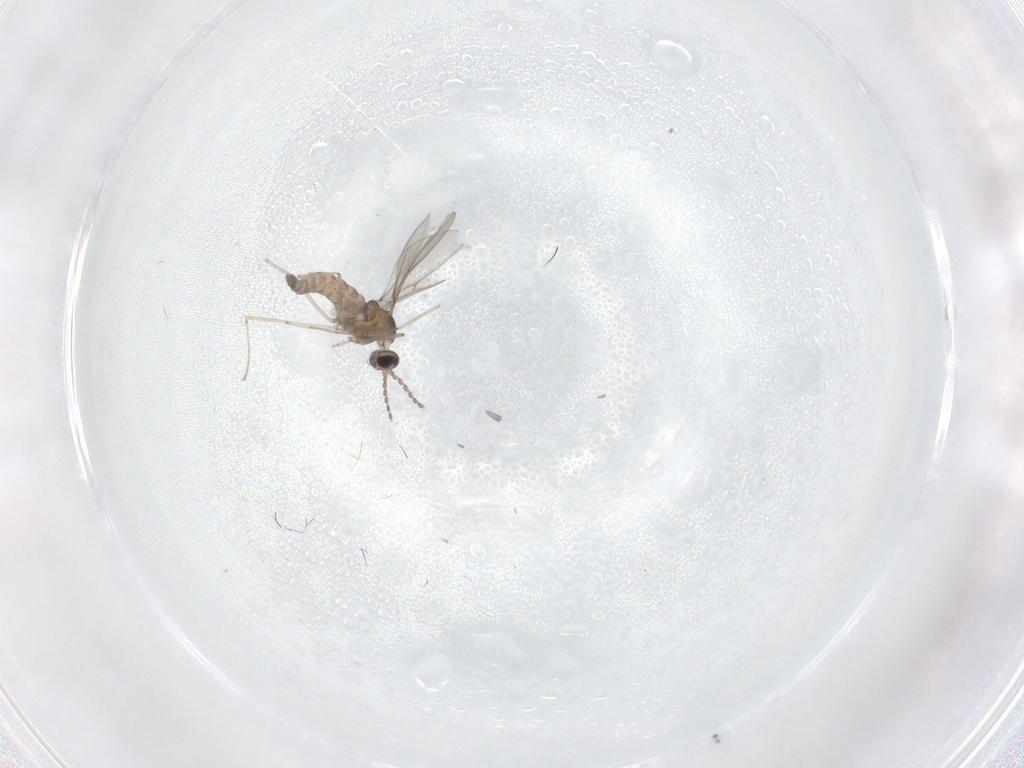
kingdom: Animalia
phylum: Arthropoda
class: Insecta
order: Diptera
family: Cecidomyiidae
